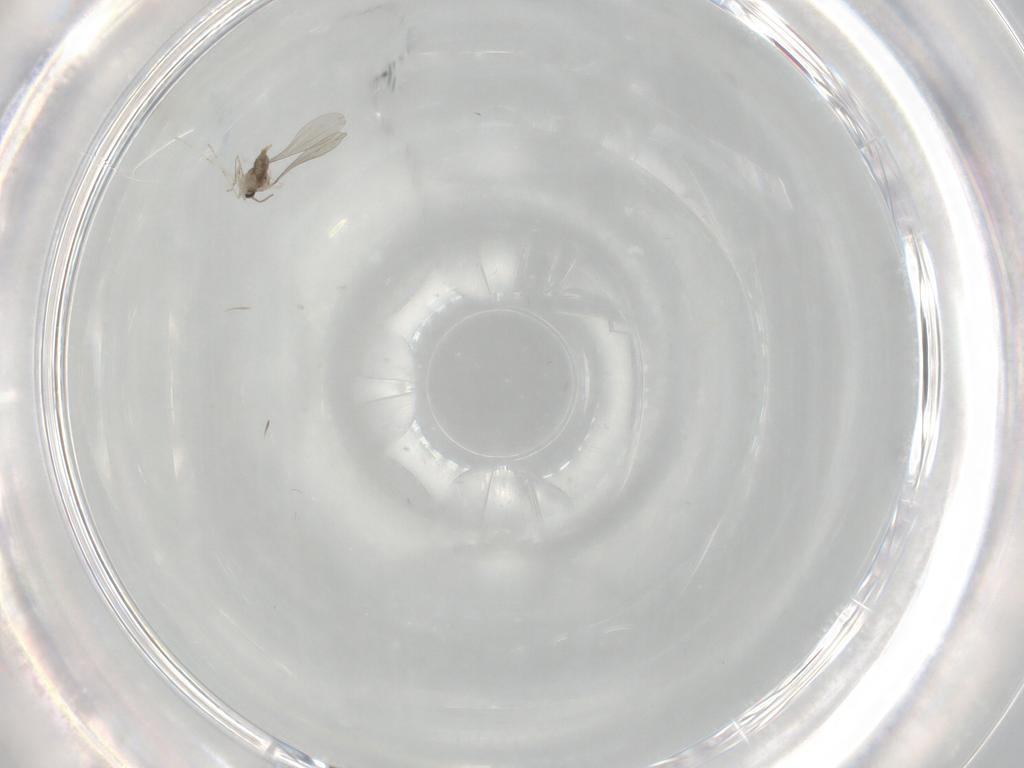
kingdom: Animalia
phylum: Arthropoda
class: Insecta
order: Diptera
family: Cecidomyiidae
